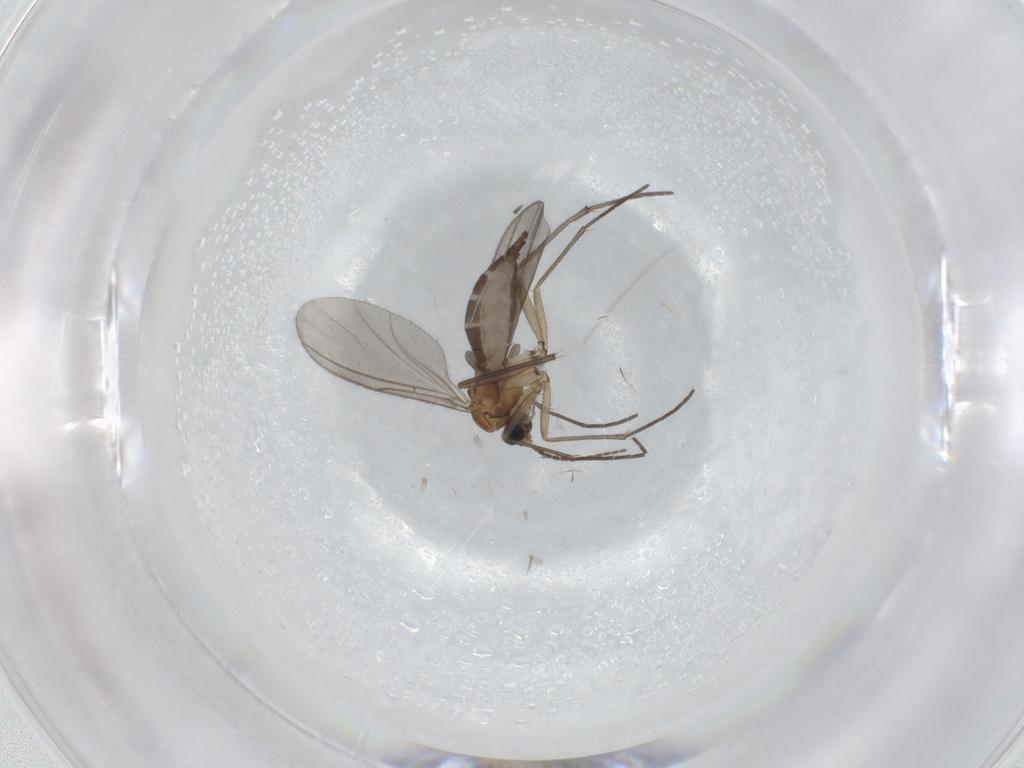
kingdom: Animalia
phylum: Arthropoda
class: Insecta
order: Diptera
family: Sciaridae
